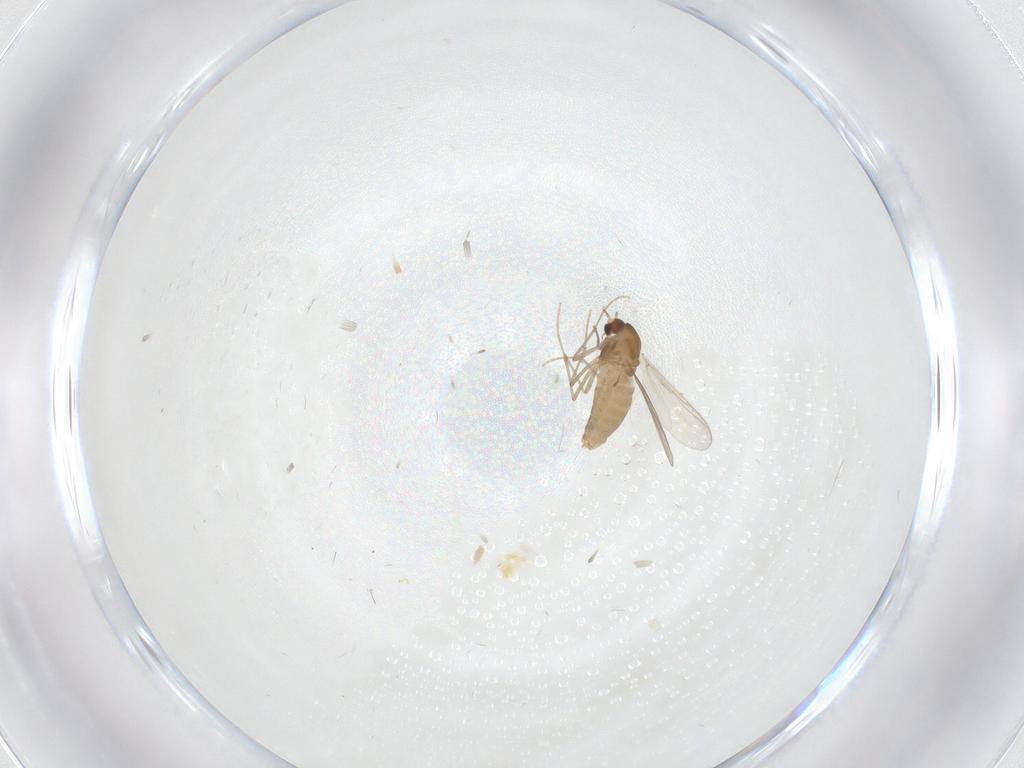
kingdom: Animalia
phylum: Arthropoda
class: Insecta
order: Diptera
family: Chironomidae
